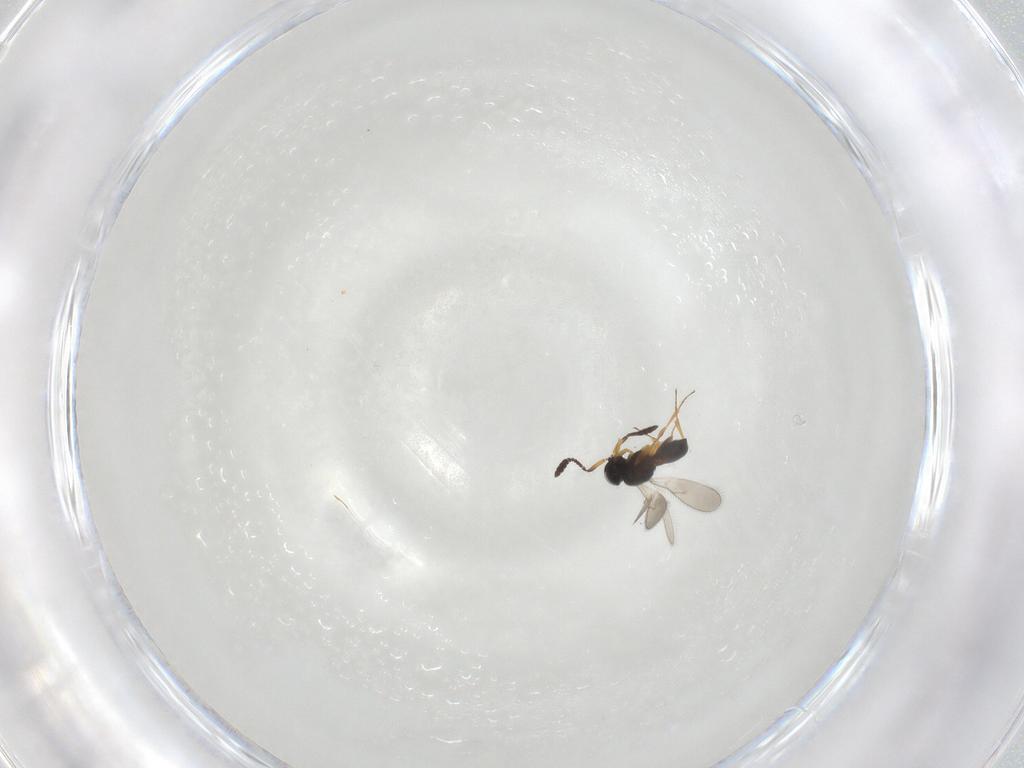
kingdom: Animalia
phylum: Arthropoda
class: Insecta
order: Hymenoptera
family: Scelionidae
